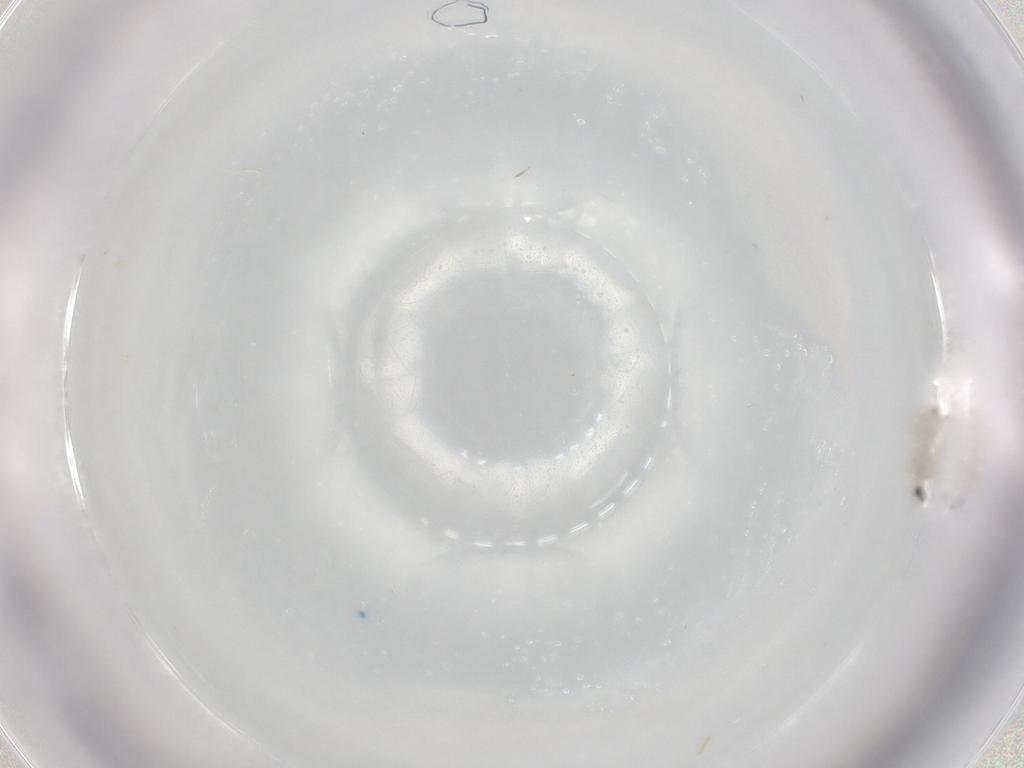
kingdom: Animalia
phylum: Arthropoda
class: Insecta
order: Diptera
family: Cecidomyiidae
